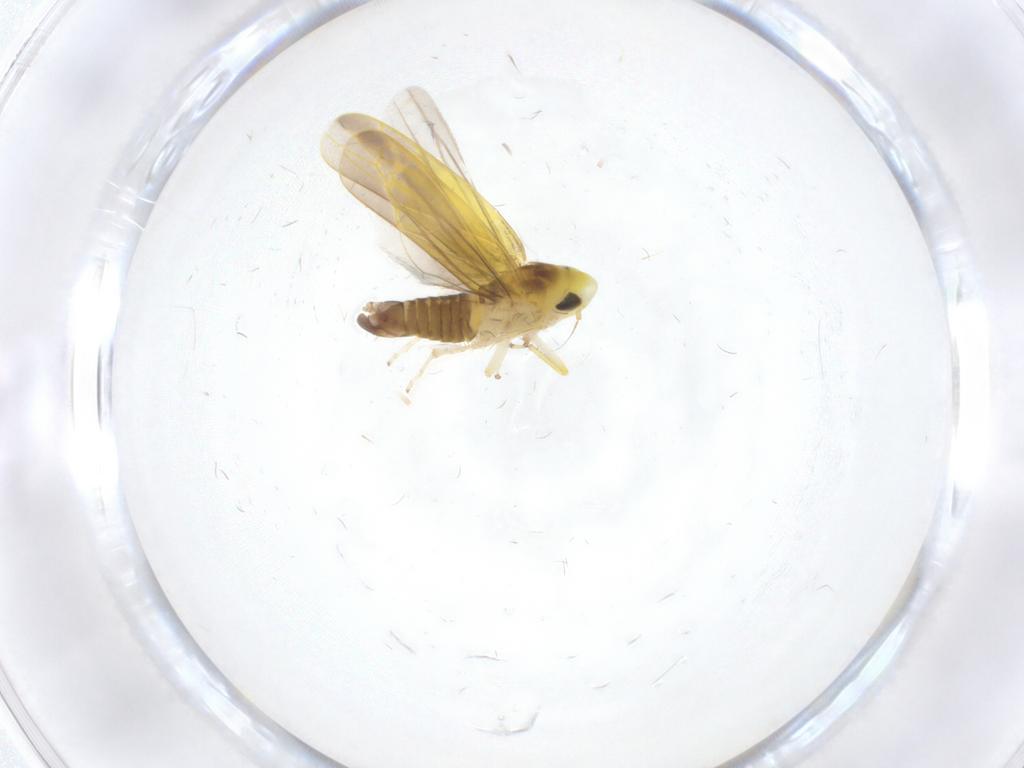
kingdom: Animalia
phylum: Arthropoda
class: Insecta
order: Hemiptera
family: Cicadellidae
